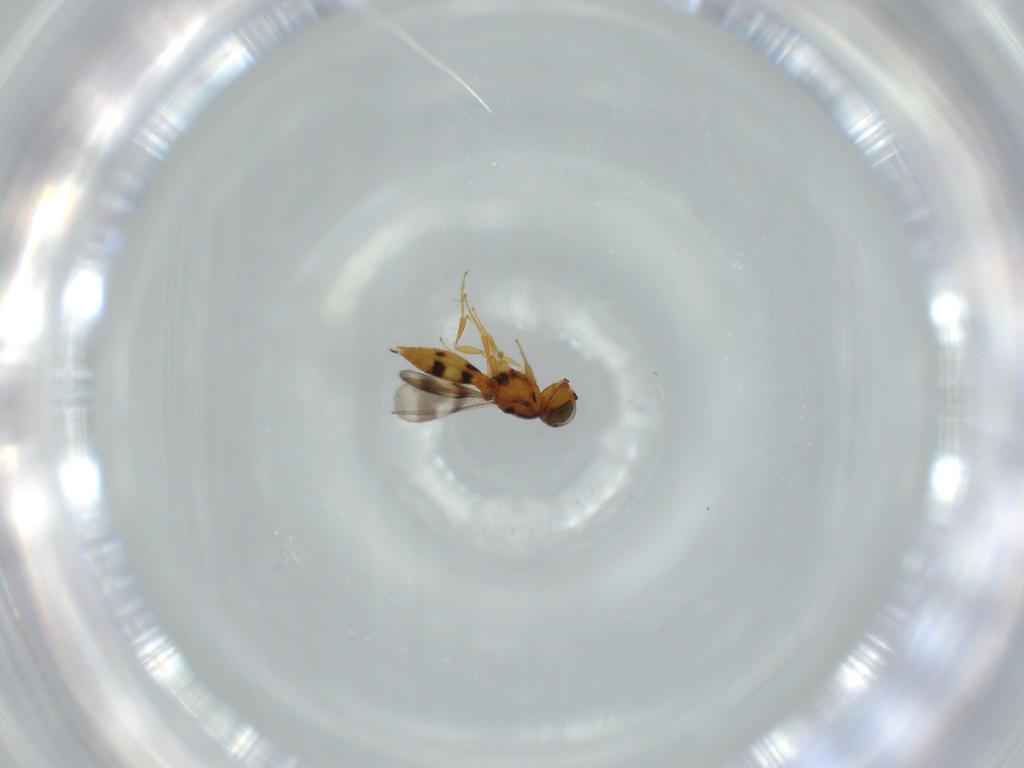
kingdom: Animalia
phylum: Arthropoda
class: Insecta
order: Hymenoptera
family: Scelionidae
